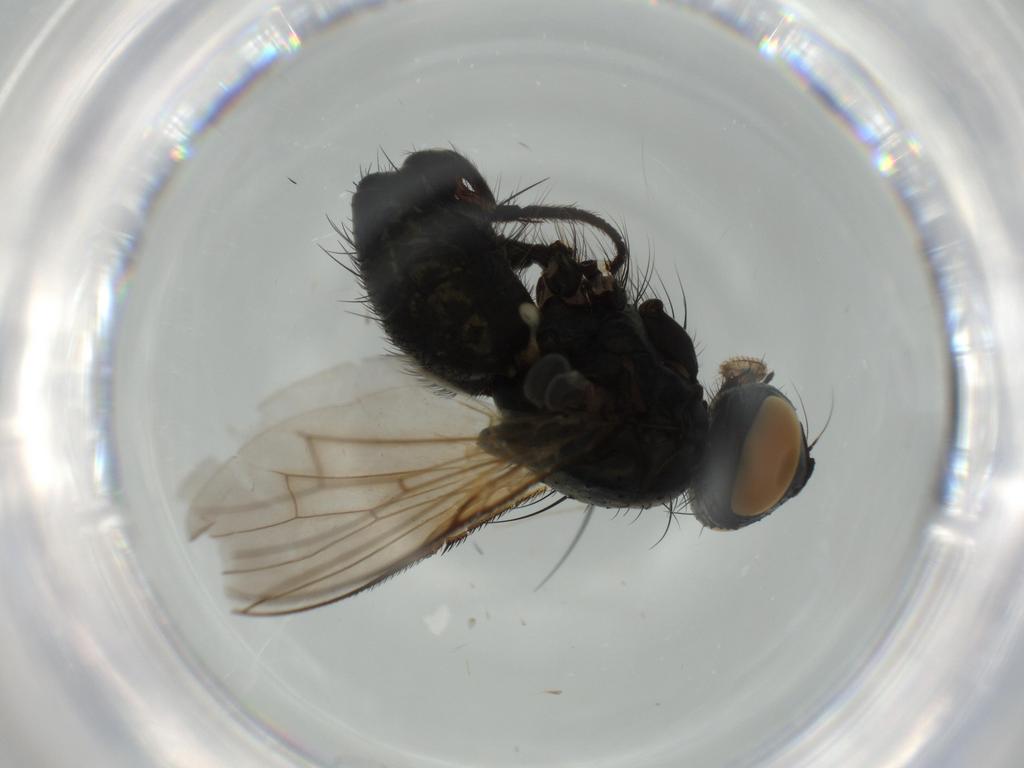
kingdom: Animalia
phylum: Arthropoda
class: Insecta
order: Diptera
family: Muscidae
